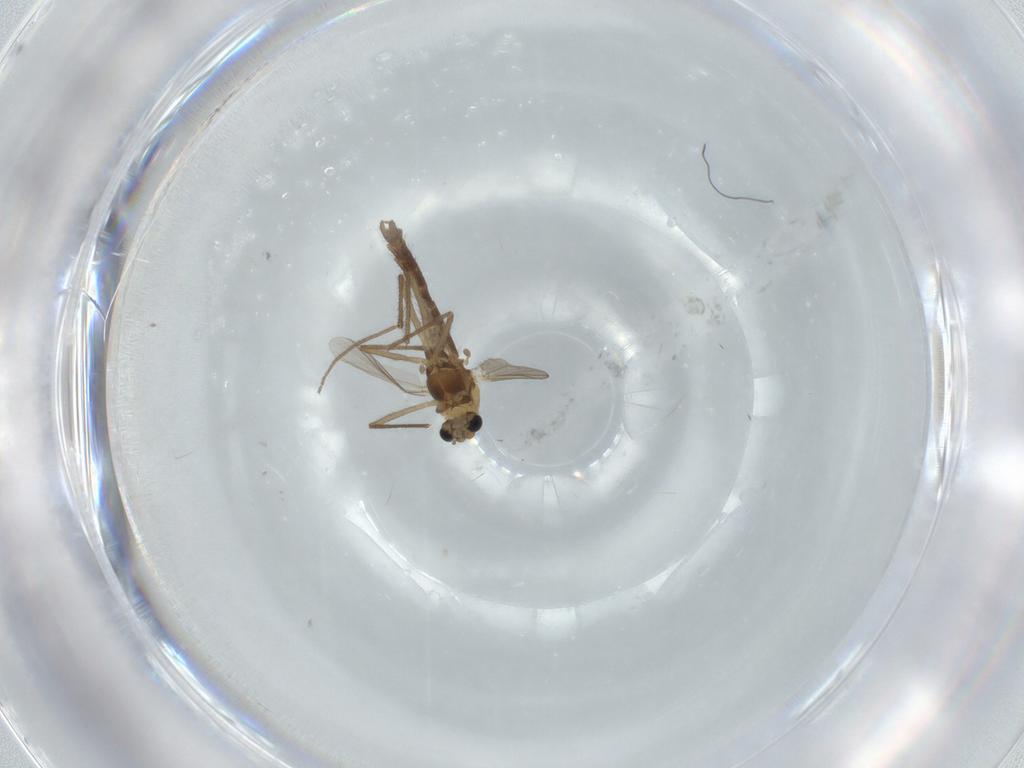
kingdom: Animalia
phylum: Arthropoda
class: Insecta
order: Diptera
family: Chironomidae
